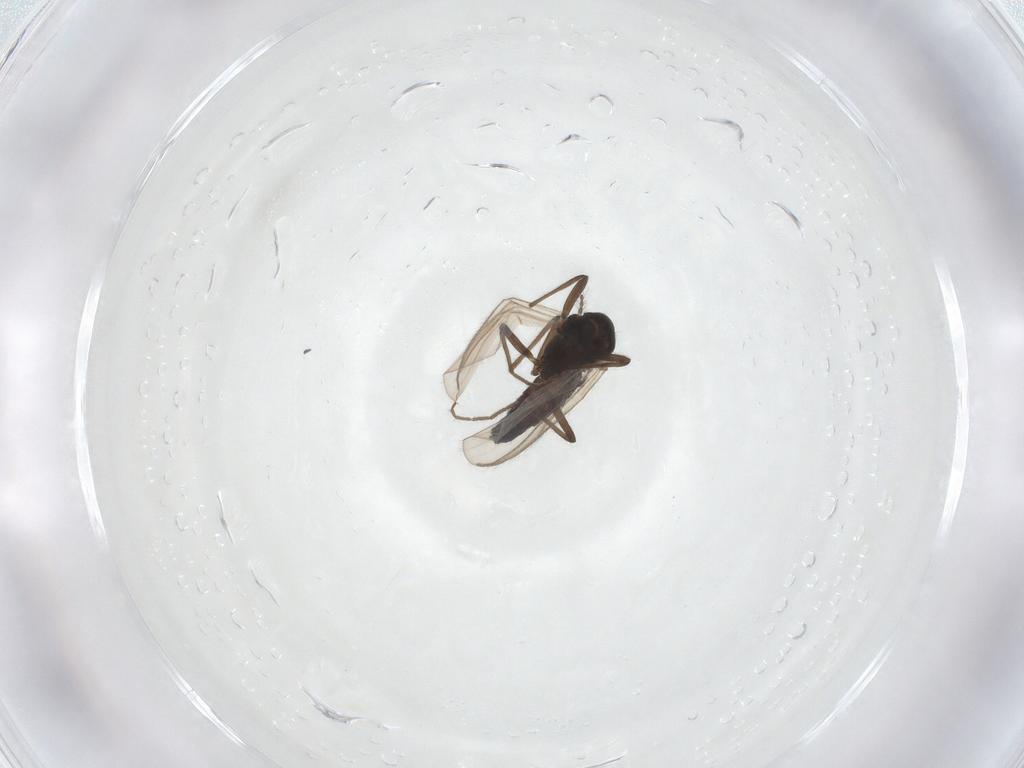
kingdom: Animalia
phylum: Arthropoda
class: Insecta
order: Diptera
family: Chironomidae
